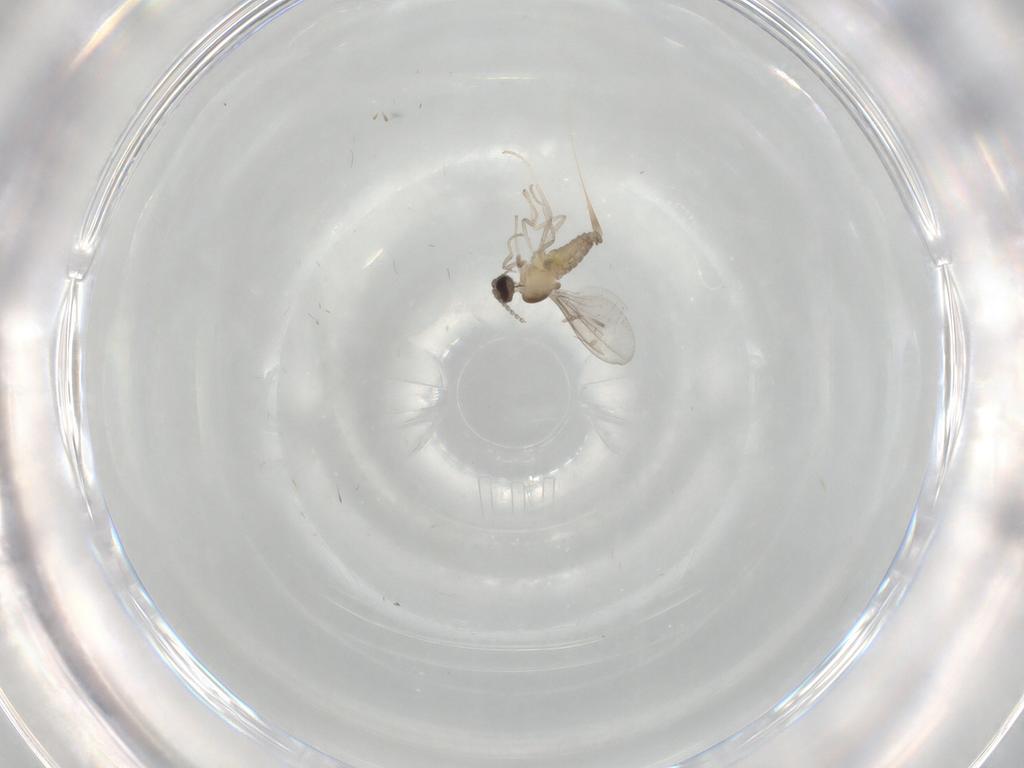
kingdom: Animalia
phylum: Arthropoda
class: Insecta
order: Diptera
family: Cecidomyiidae
